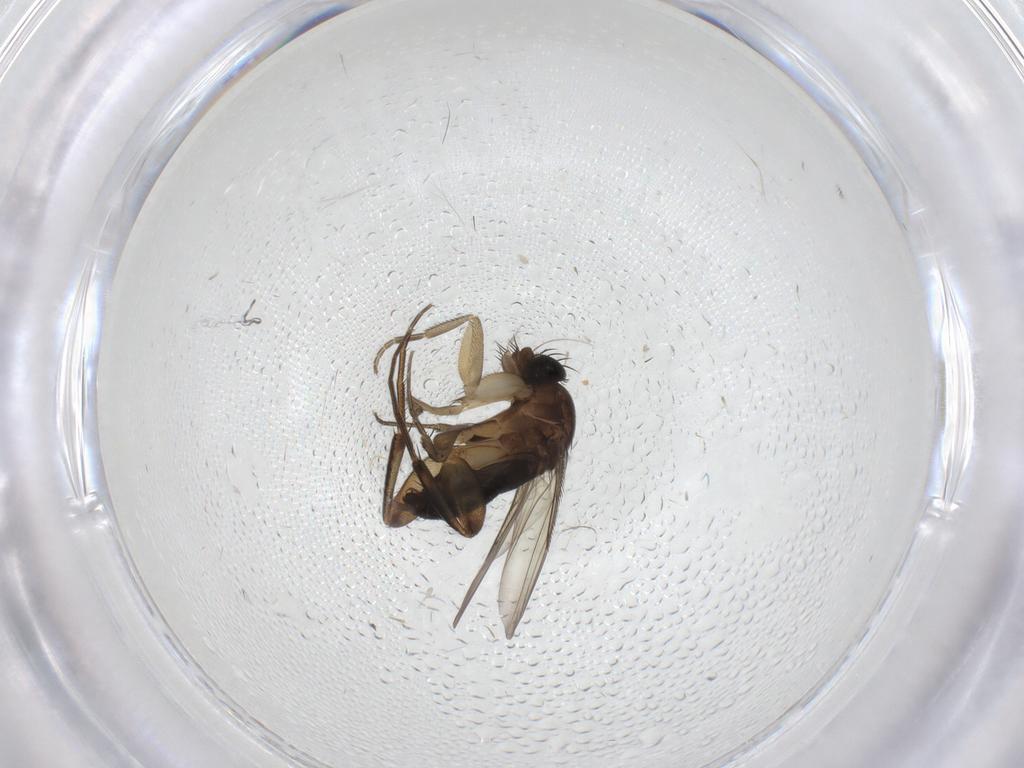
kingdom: Animalia
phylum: Arthropoda
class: Insecta
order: Diptera
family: Phoridae
